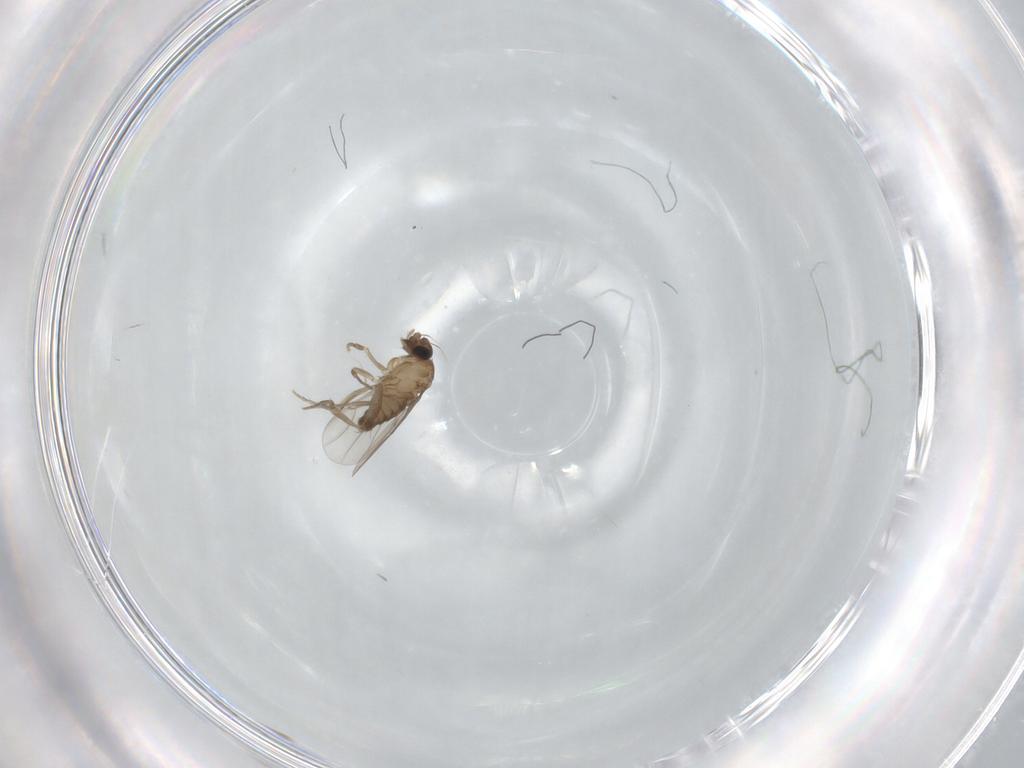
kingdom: Animalia
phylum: Arthropoda
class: Insecta
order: Diptera
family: Phoridae
